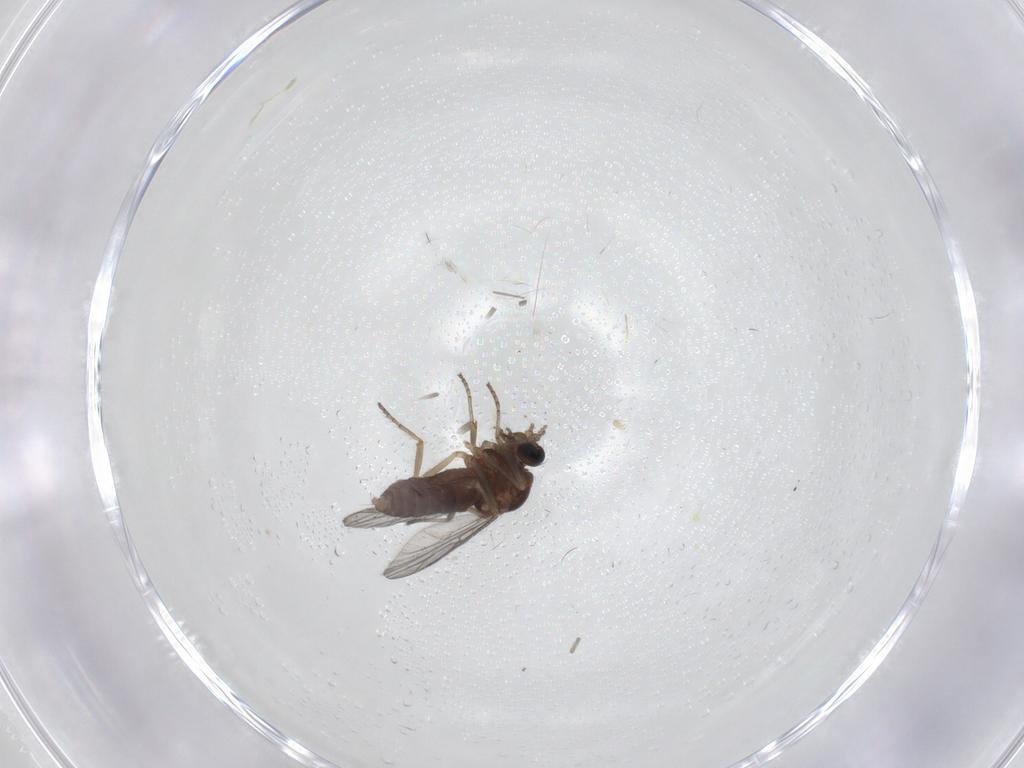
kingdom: Animalia
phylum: Arthropoda
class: Insecta
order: Diptera
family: Ceratopogonidae
